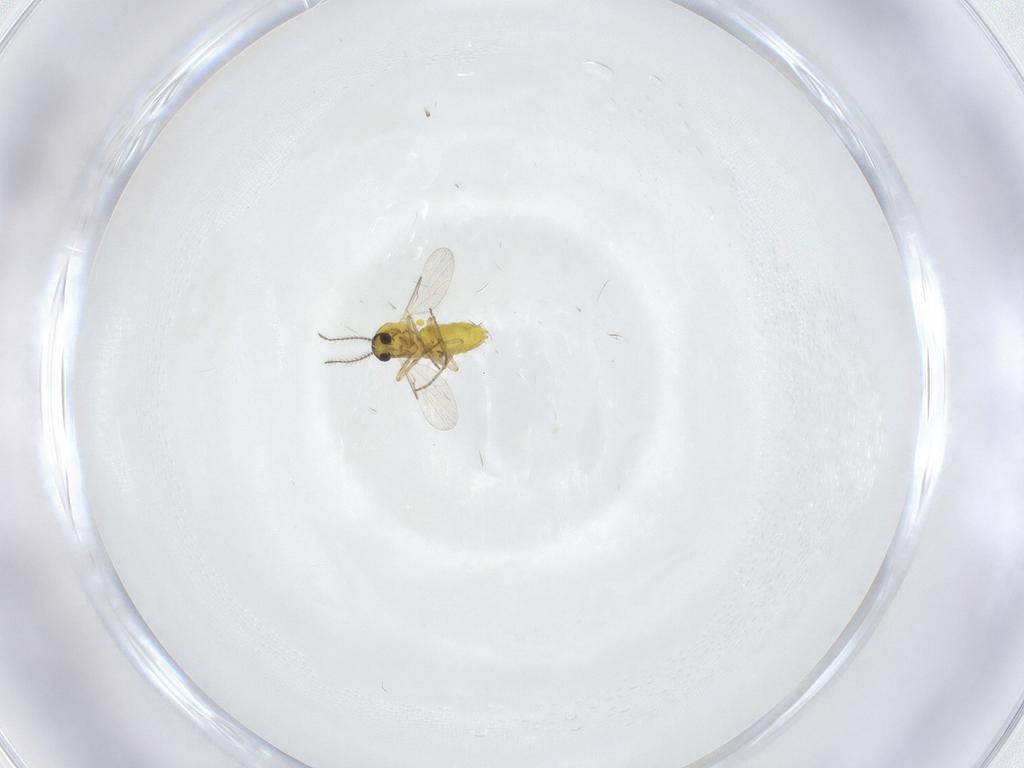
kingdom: Animalia
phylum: Arthropoda
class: Insecta
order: Diptera
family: Ceratopogonidae
